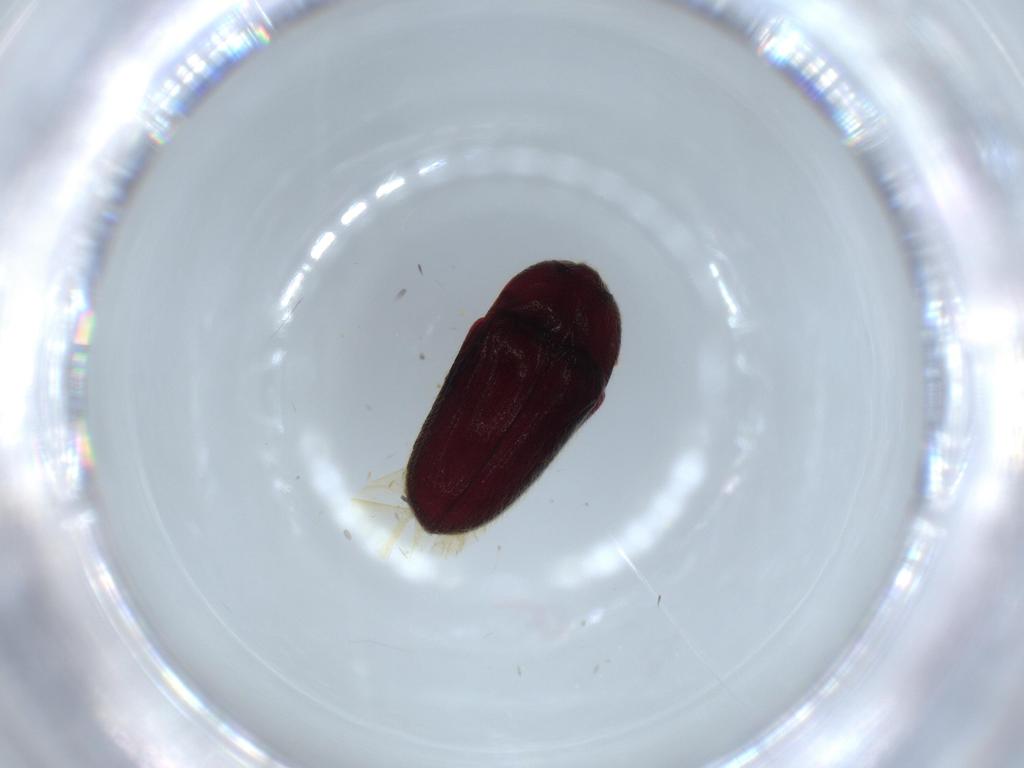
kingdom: Animalia
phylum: Arthropoda
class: Insecta
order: Coleoptera
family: Throscidae
